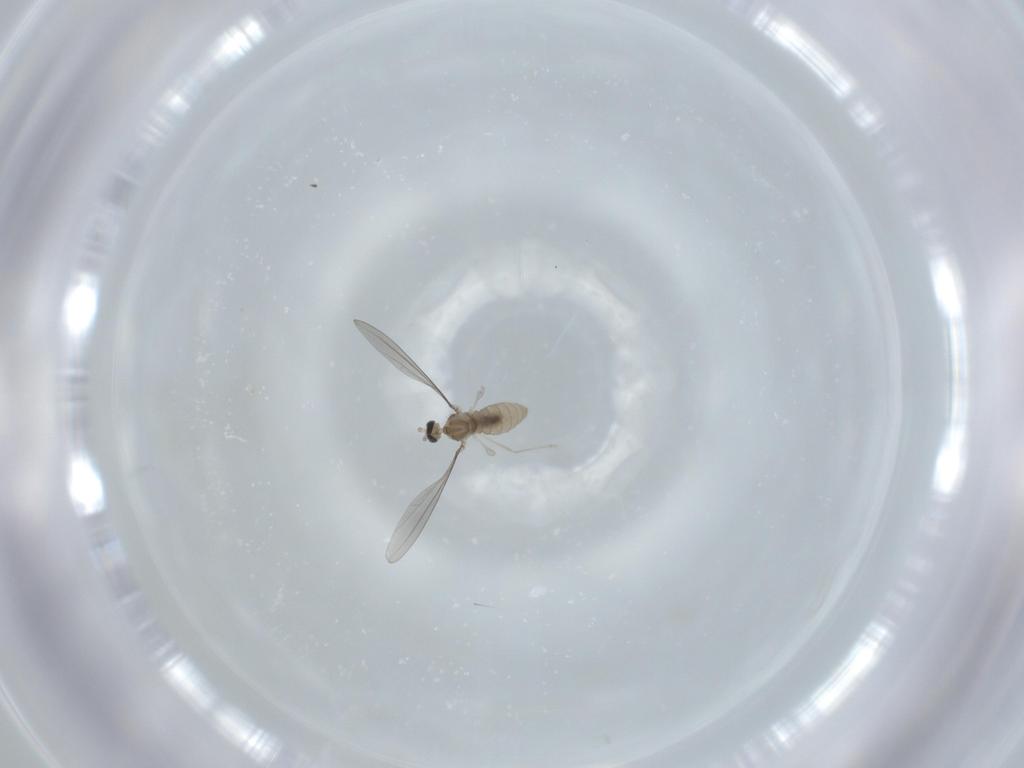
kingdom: Animalia
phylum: Arthropoda
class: Insecta
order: Diptera
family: Cecidomyiidae
